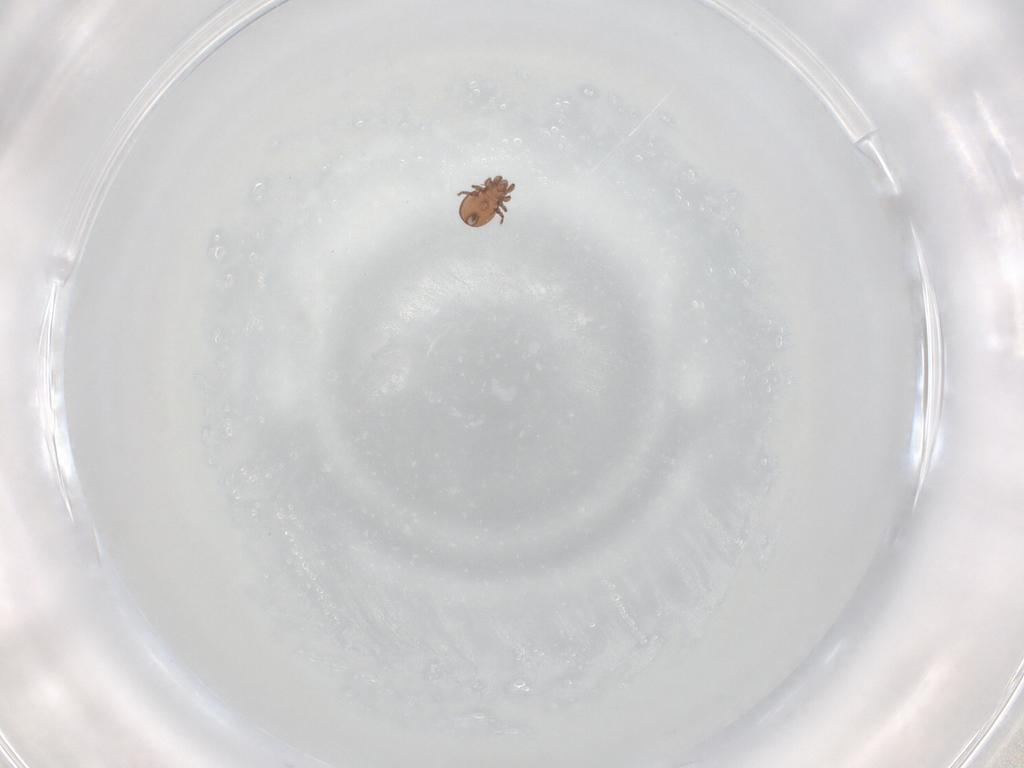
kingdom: Animalia
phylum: Arthropoda
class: Arachnida
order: Sarcoptiformes
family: Eremaeidae
